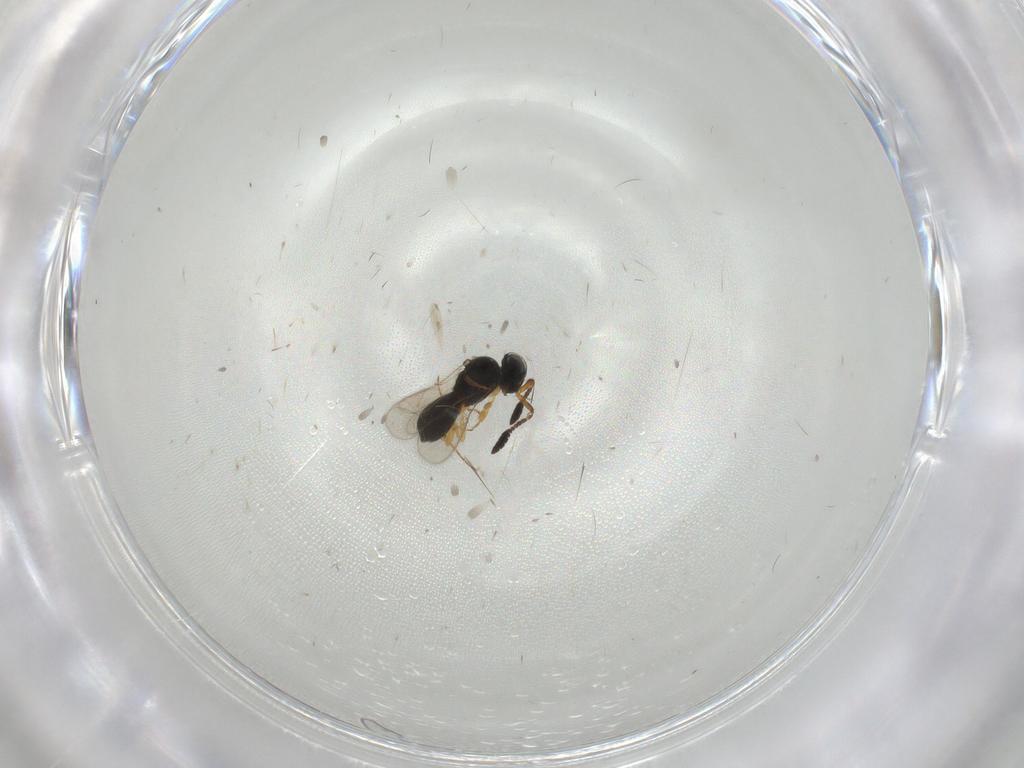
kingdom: Animalia
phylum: Arthropoda
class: Insecta
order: Hymenoptera
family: Scelionidae
